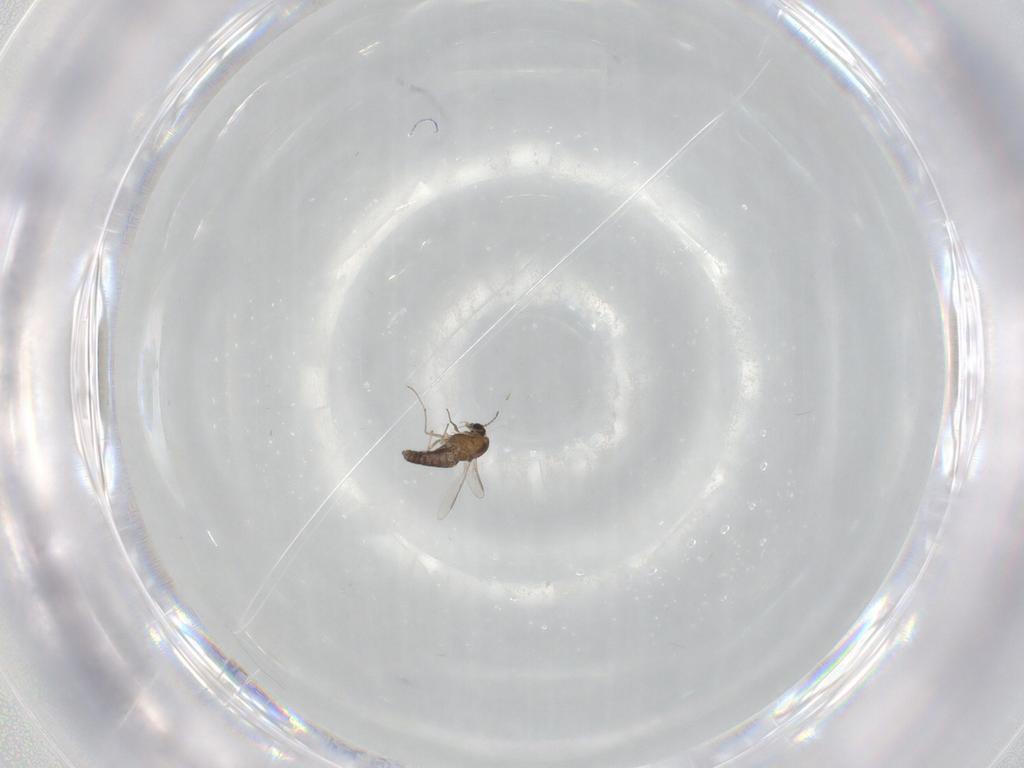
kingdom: Animalia
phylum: Arthropoda
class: Insecta
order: Diptera
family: Chironomidae
